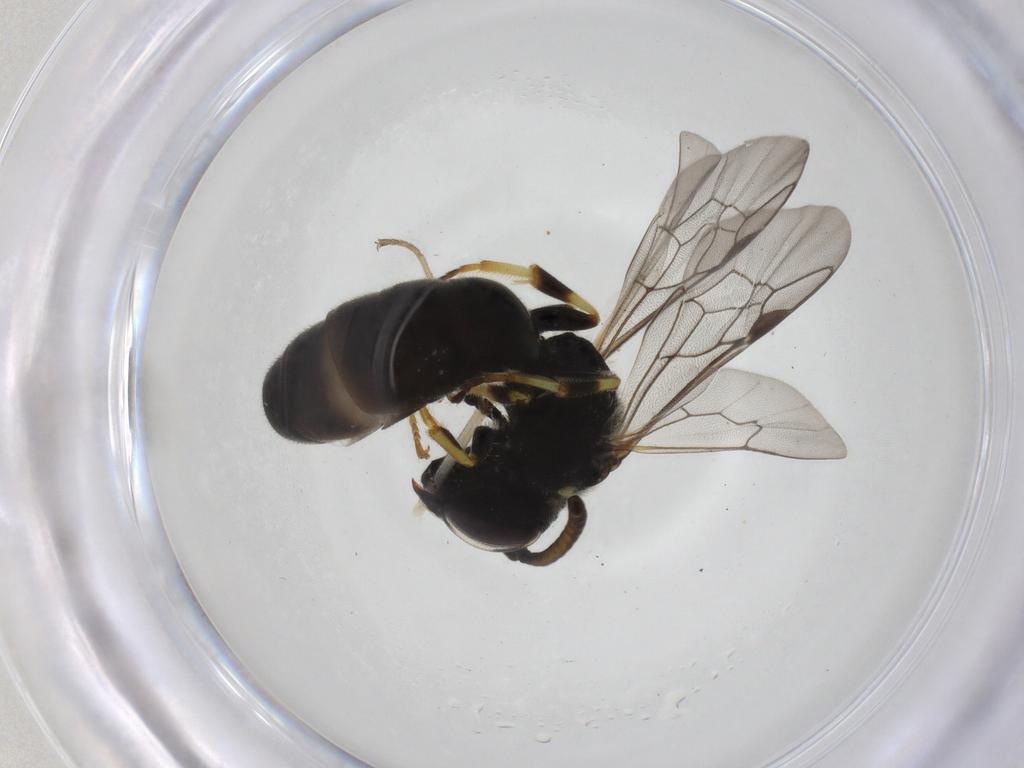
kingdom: Animalia
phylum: Arthropoda
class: Insecta
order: Hymenoptera
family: Colletidae
